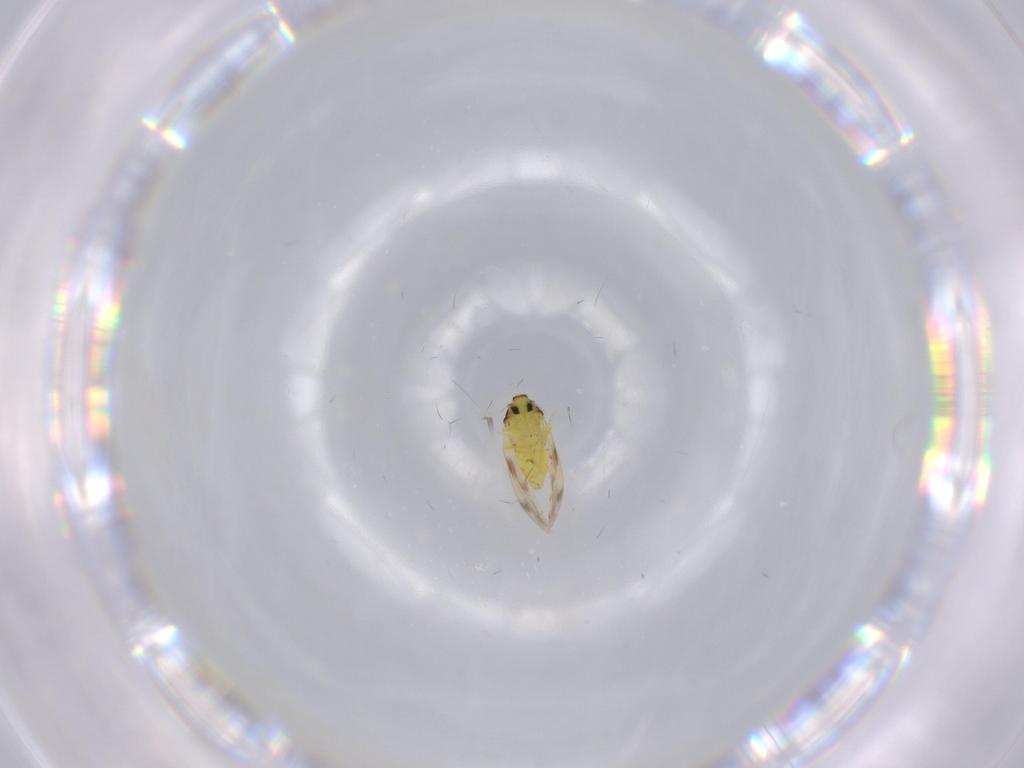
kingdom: Animalia
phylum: Arthropoda
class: Insecta
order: Hemiptera
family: Aleyrodidae
